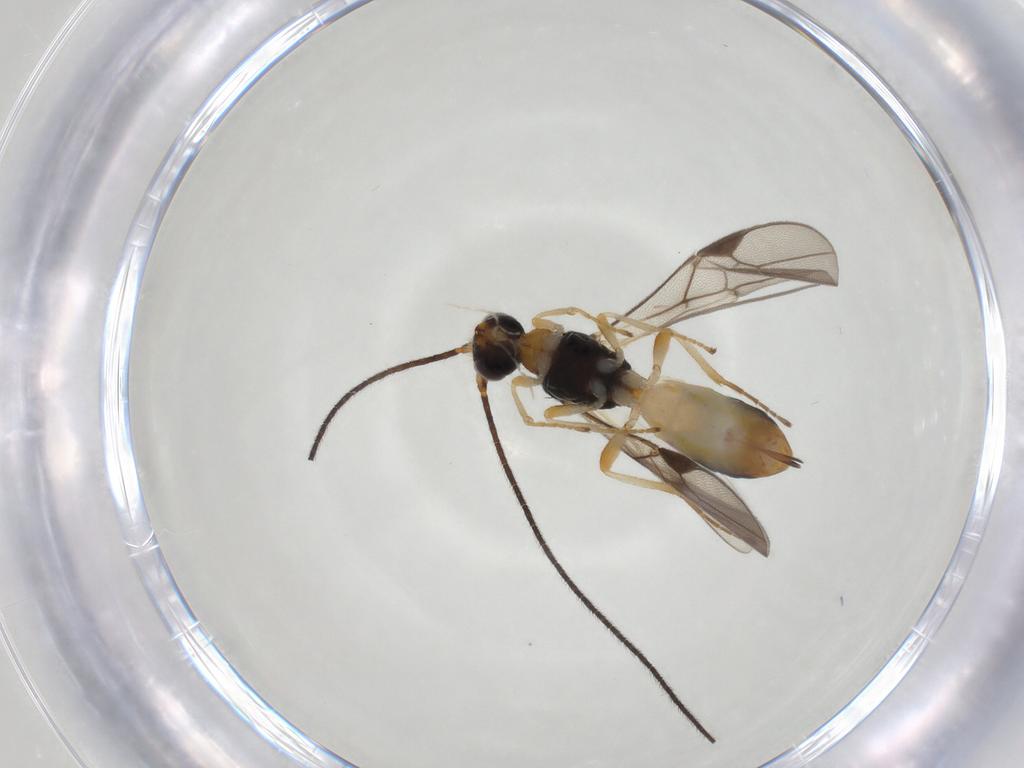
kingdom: Animalia
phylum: Arthropoda
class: Insecta
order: Hymenoptera
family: Braconidae
